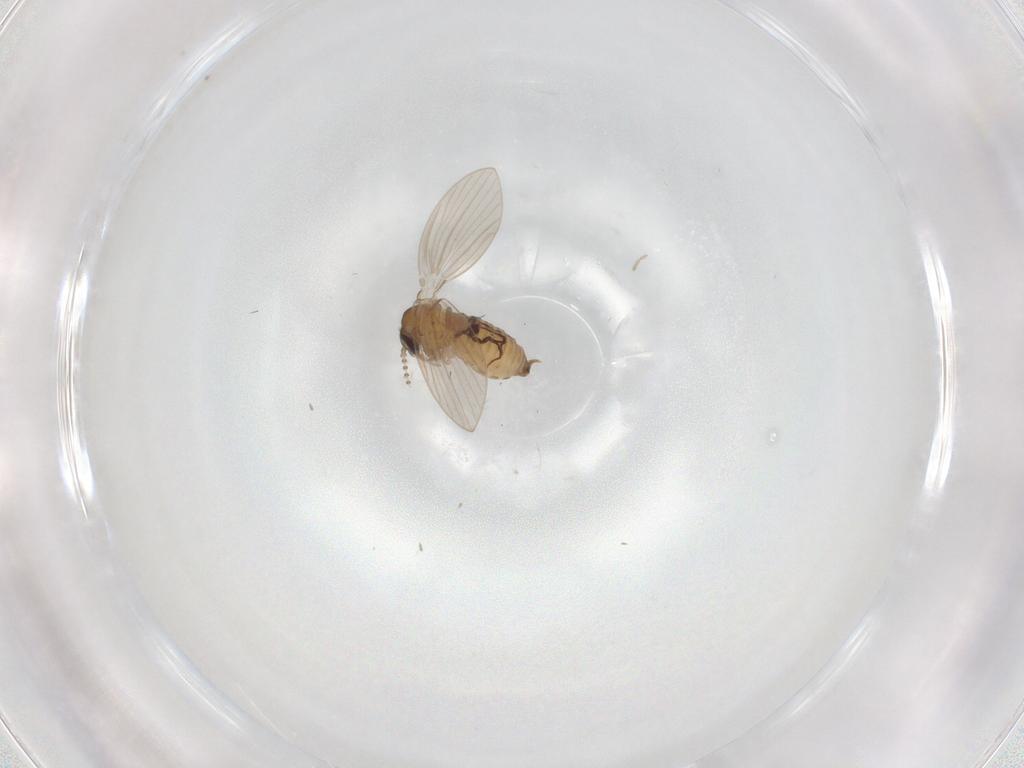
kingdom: Animalia
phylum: Arthropoda
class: Insecta
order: Diptera
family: Psychodidae
